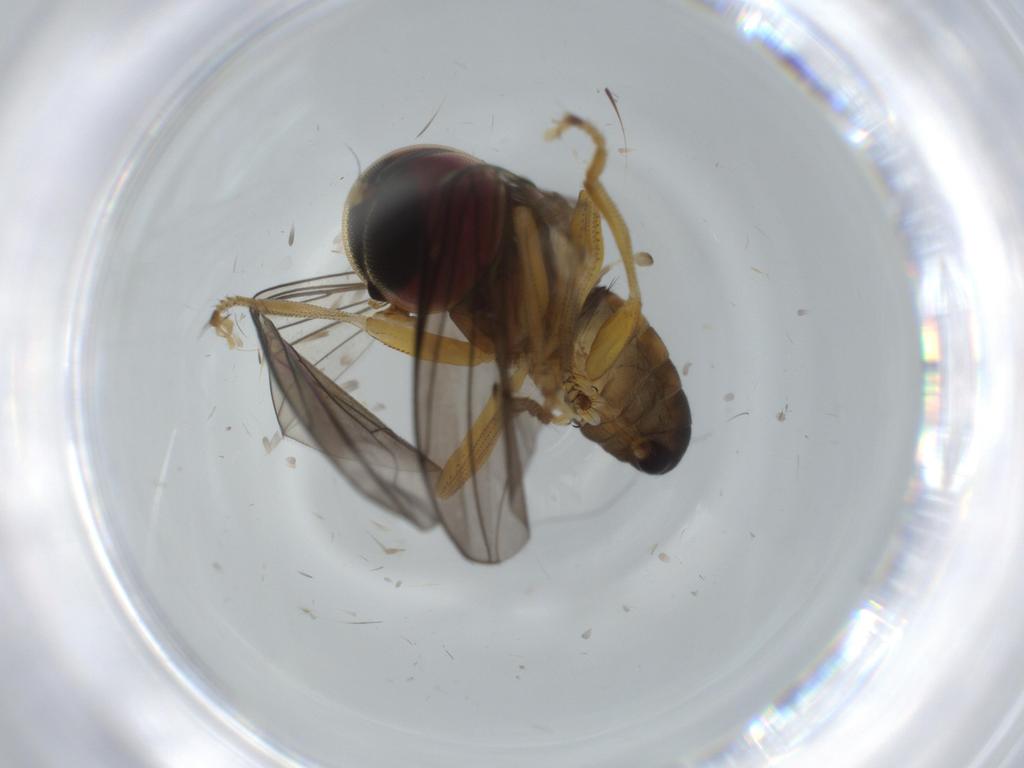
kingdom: Animalia
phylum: Arthropoda
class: Insecta
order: Diptera
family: Pipunculidae
